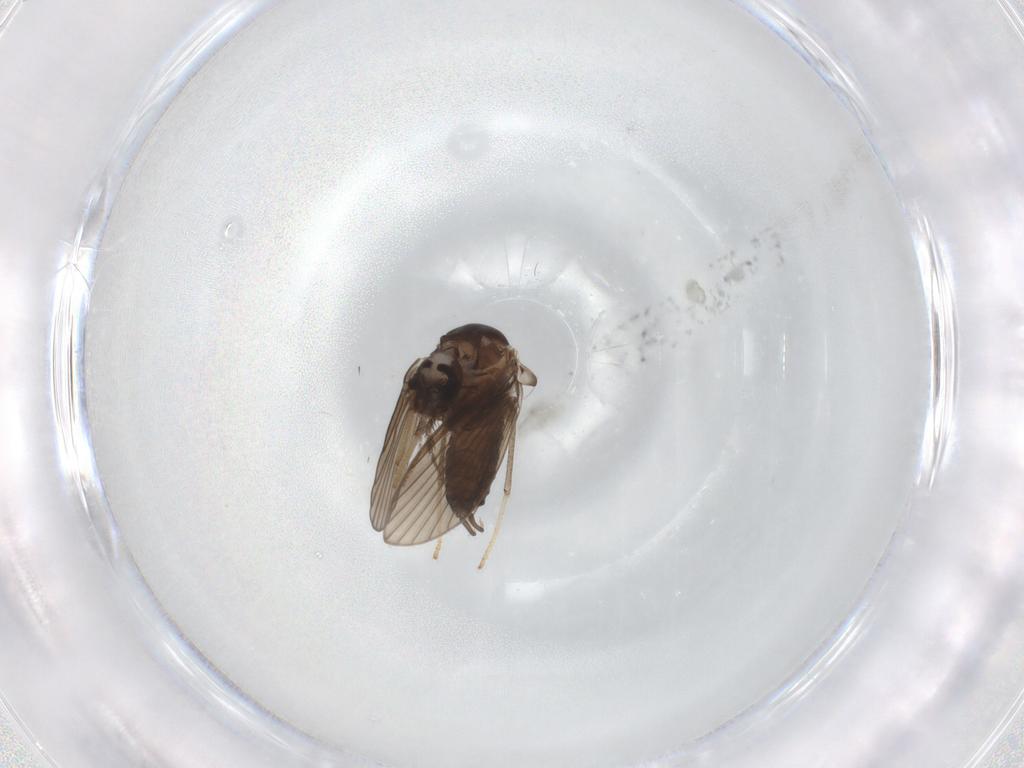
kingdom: Animalia
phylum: Arthropoda
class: Insecta
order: Diptera
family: Psychodidae
